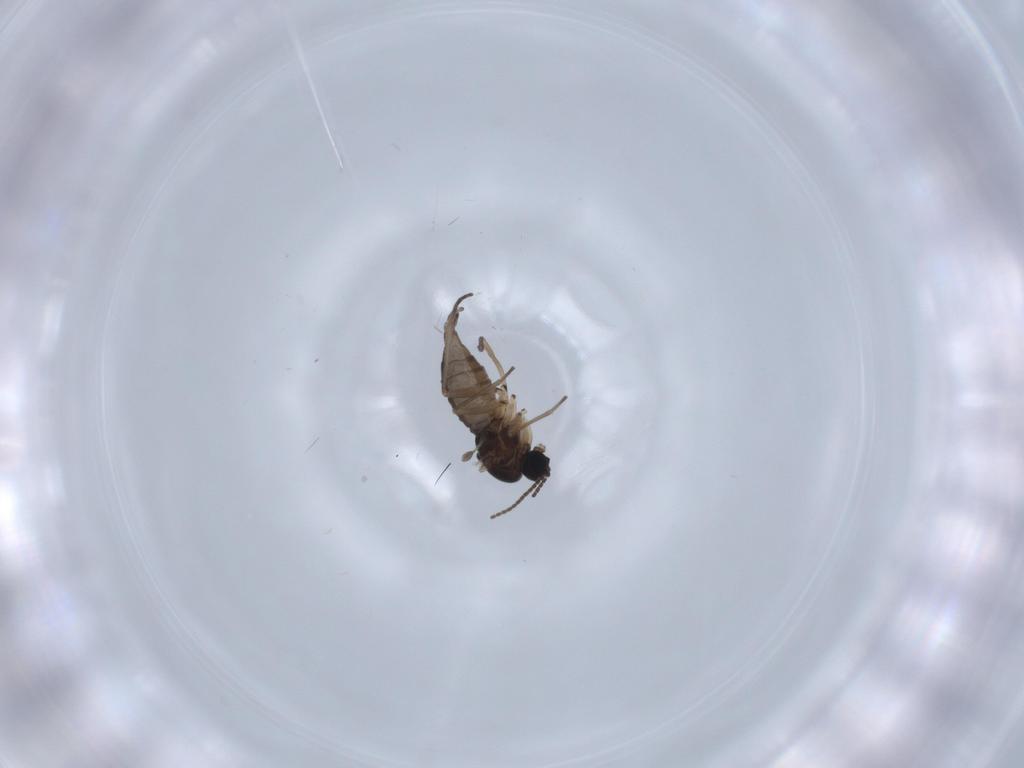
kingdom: Animalia
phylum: Arthropoda
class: Insecta
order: Diptera
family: Sciaridae
